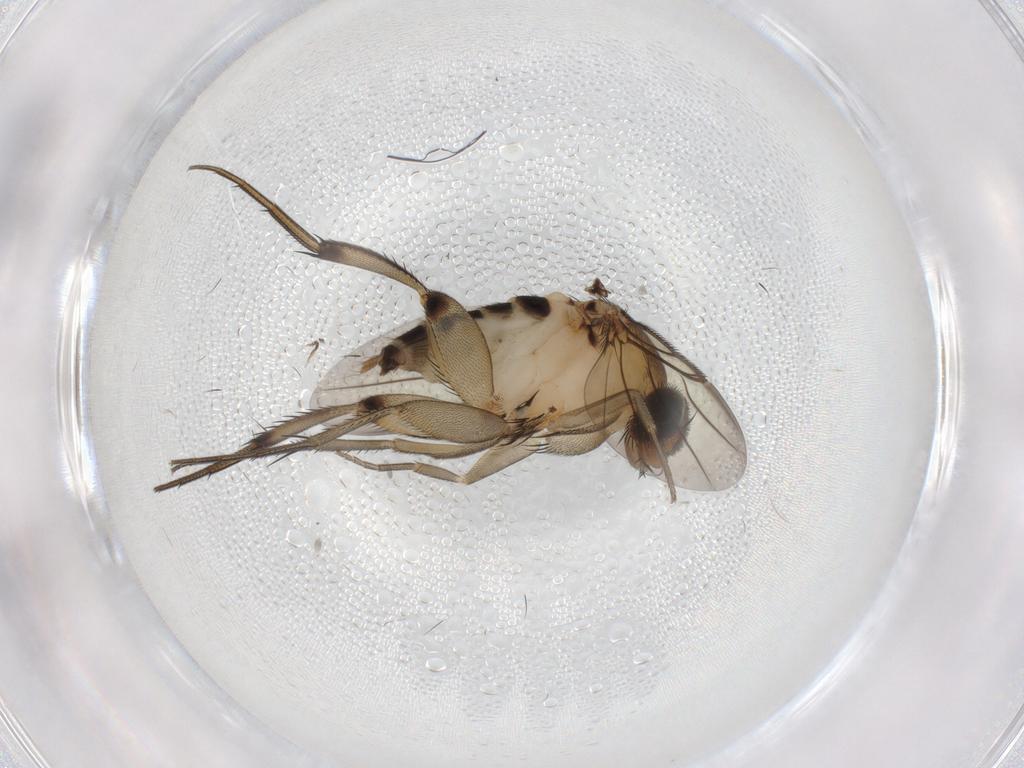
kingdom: Animalia
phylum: Arthropoda
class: Insecta
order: Diptera
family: Phoridae
